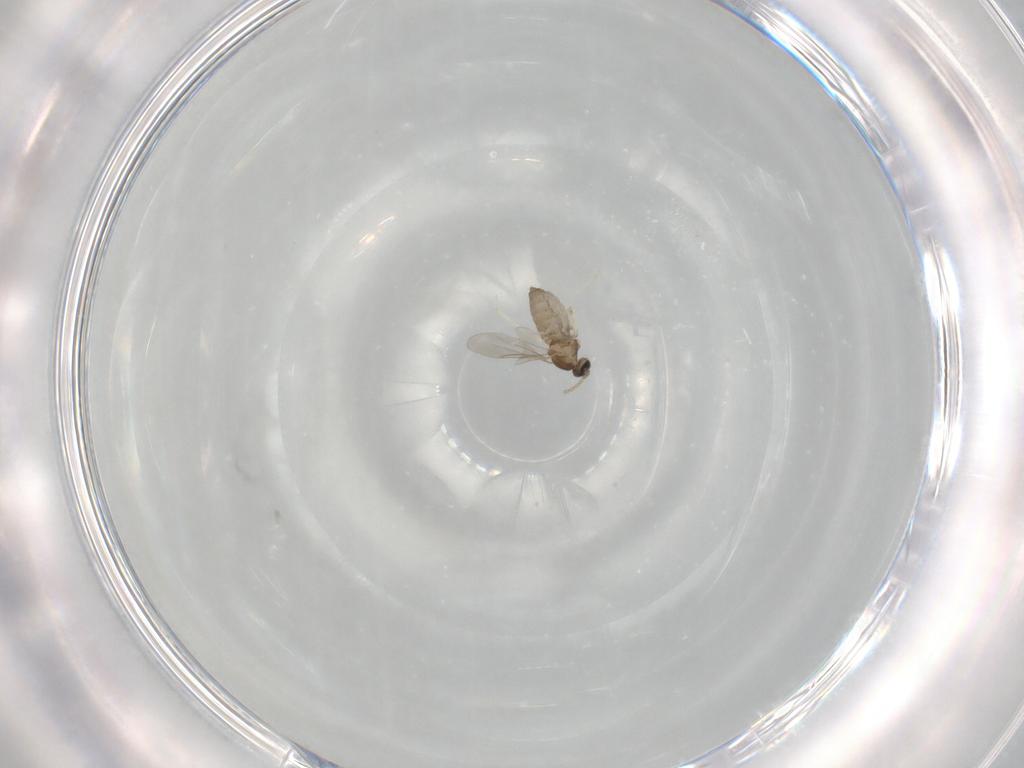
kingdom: Animalia
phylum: Arthropoda
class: Insecta
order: Diptera
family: Cecidomyiidae
